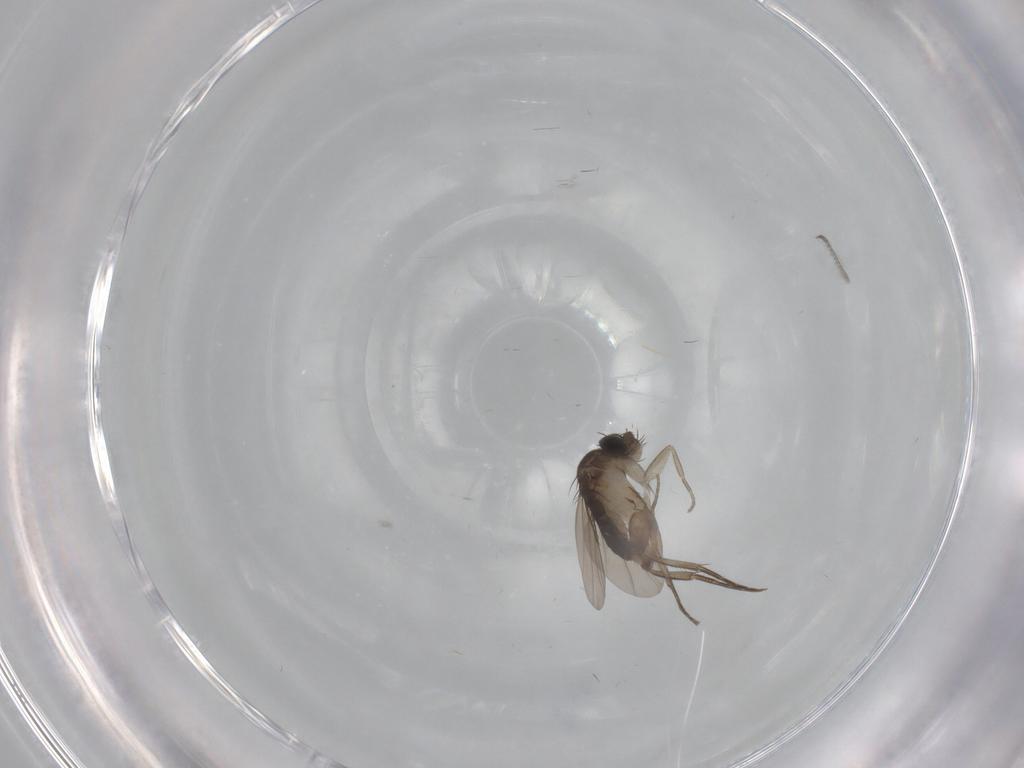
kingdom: Animalia
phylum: Arthropoda
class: Insecta
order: Diptera
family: Phoridae
